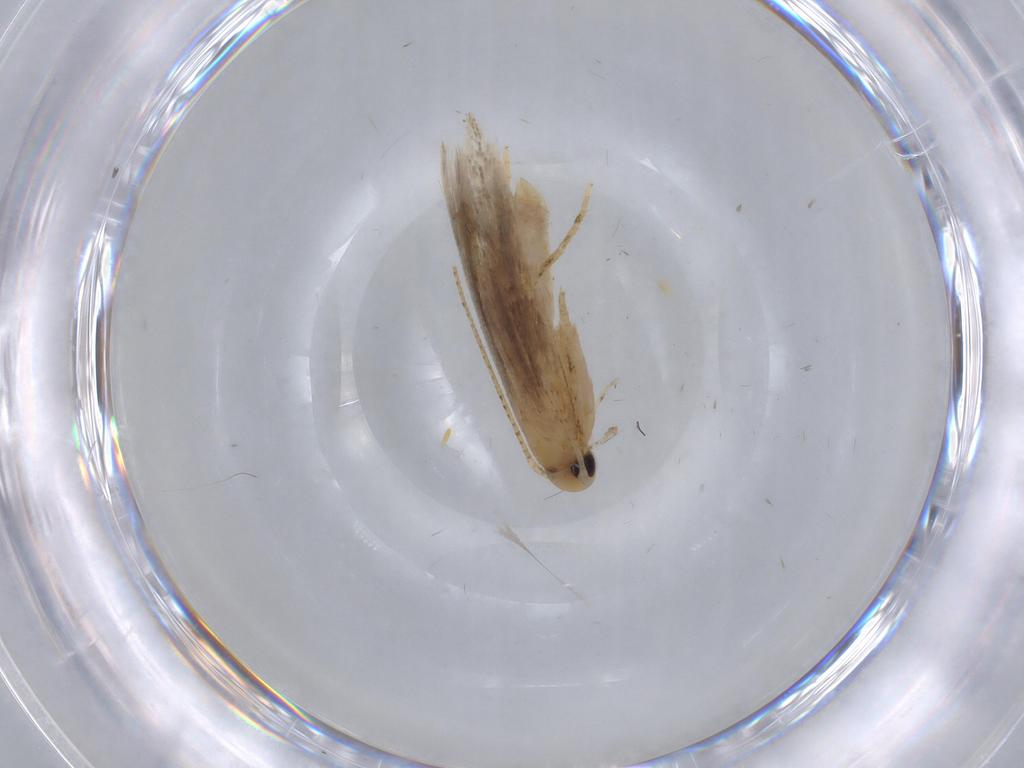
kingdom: Animalia
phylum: Arthropoda
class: Insecta
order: Lepidoptera
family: Gelechiidae
